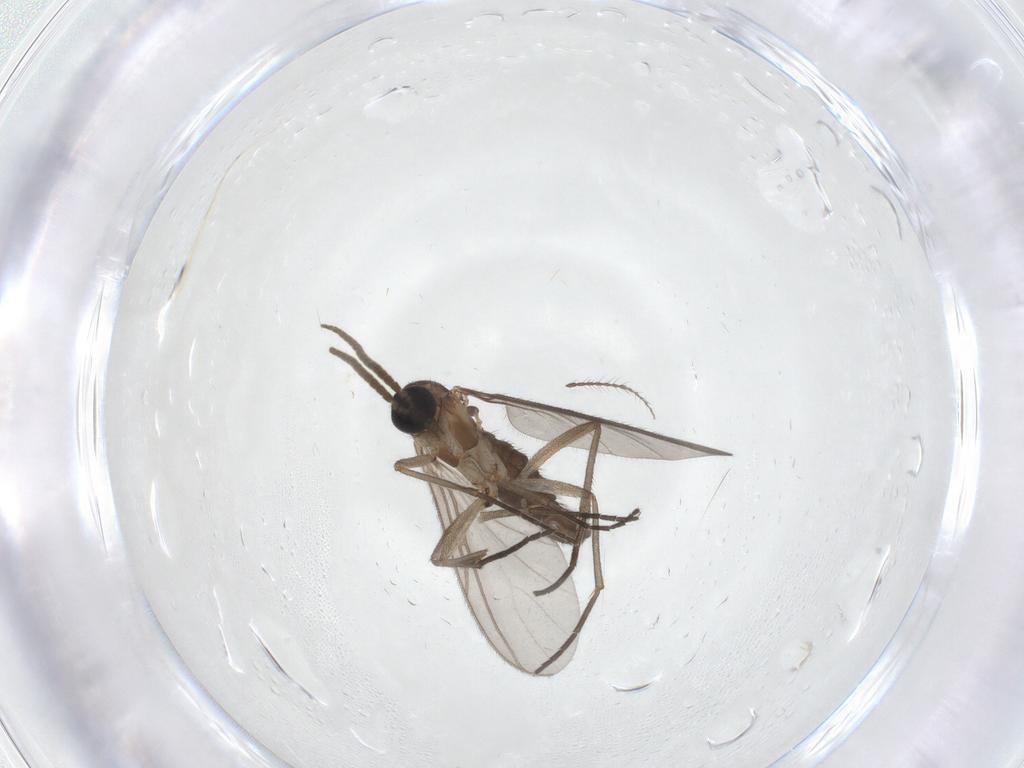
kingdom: Animalia
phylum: Arthropoda
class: Insecta
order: Diptera
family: Limoniidae
